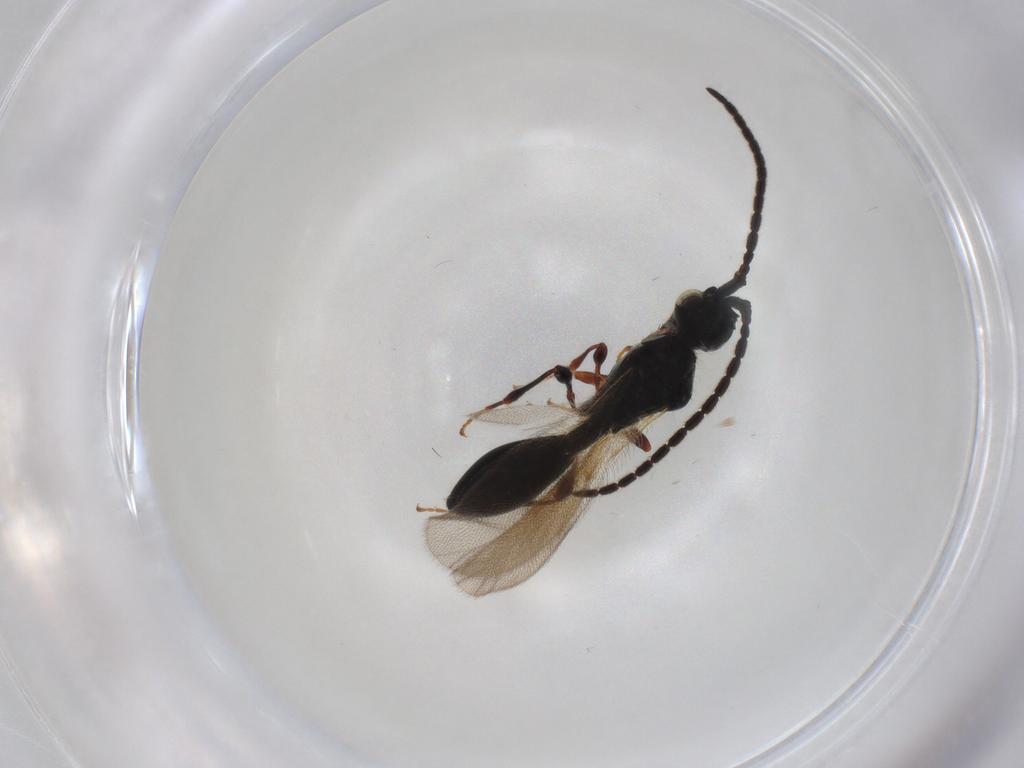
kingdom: Animalia
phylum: Arthropoda
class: Insecta
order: Hymenoptera
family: Diapriidae
